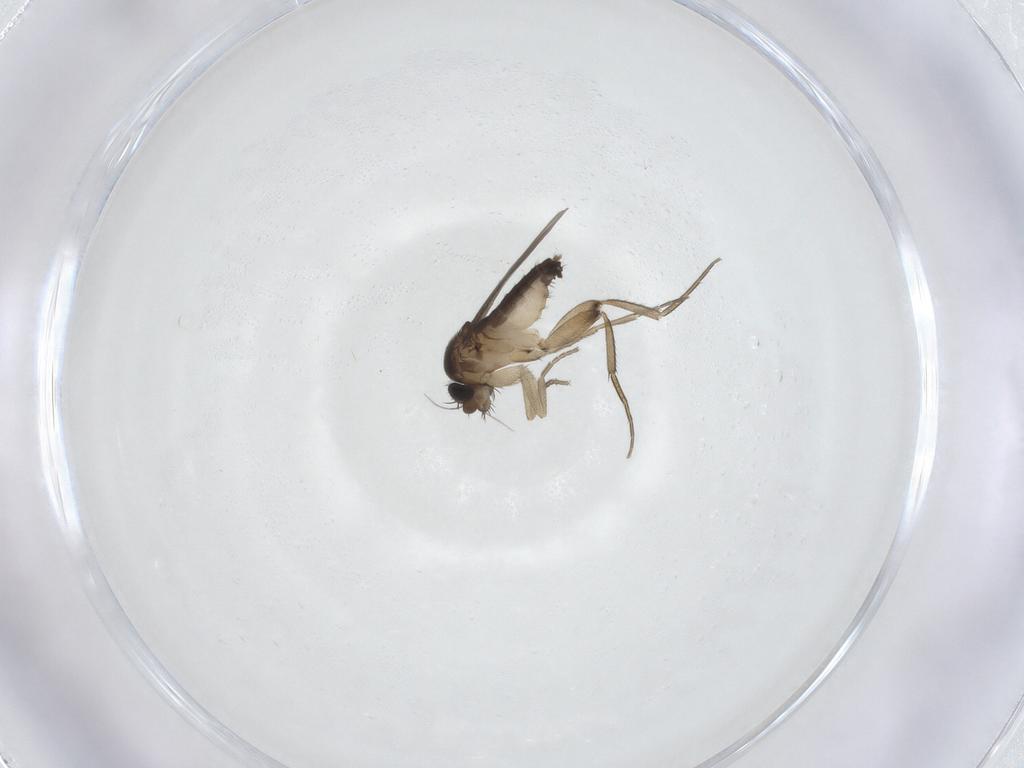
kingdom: Animalia
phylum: Arthropoda
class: Insecta
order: Diptera
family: Phoridae
